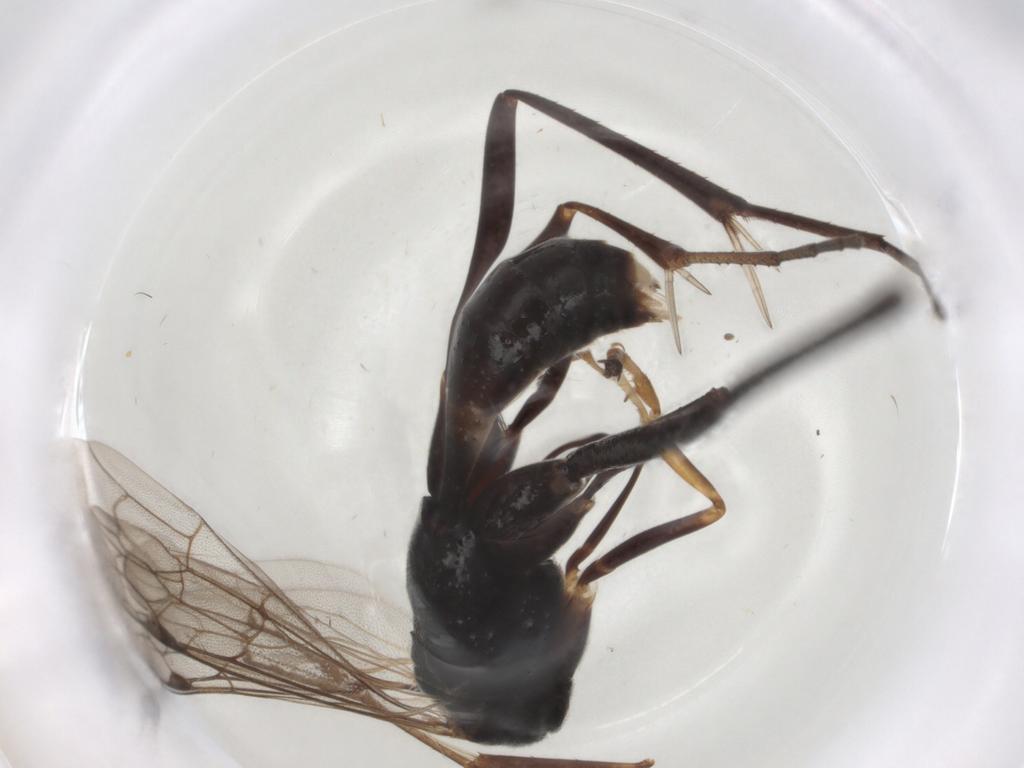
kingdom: Animalia
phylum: Arthropoda
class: Insecta
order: Hymenoptera
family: Pompilidae
